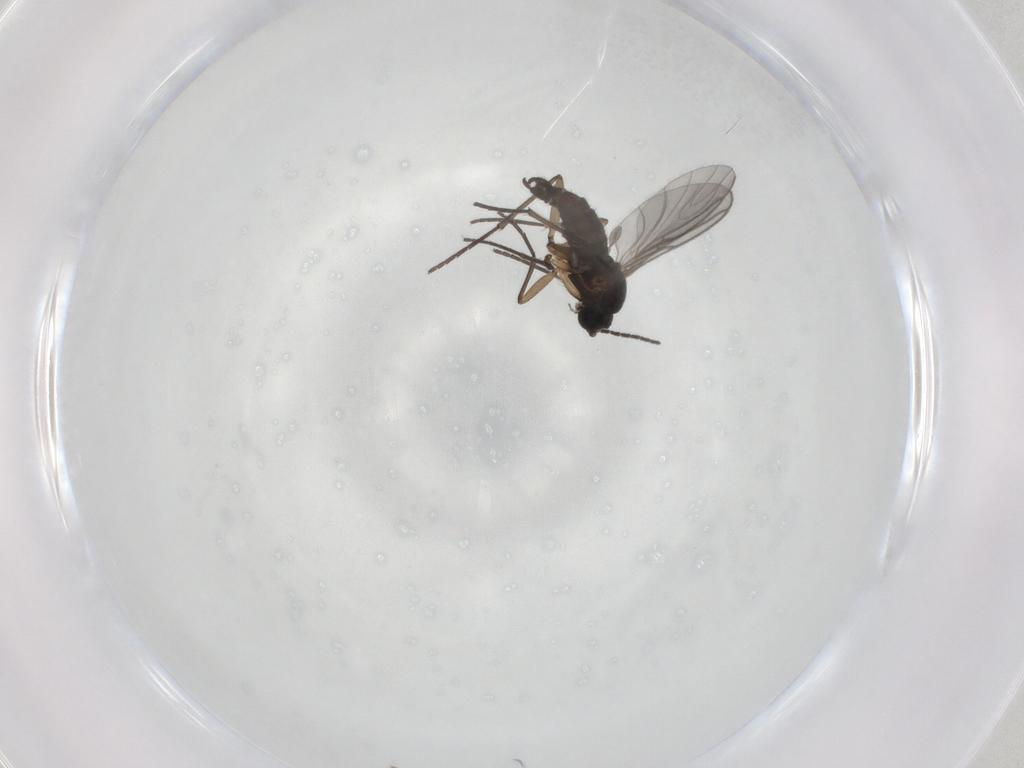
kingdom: Animalia
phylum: Arthropoda
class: Insecta
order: Diptera
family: Sciaridae
